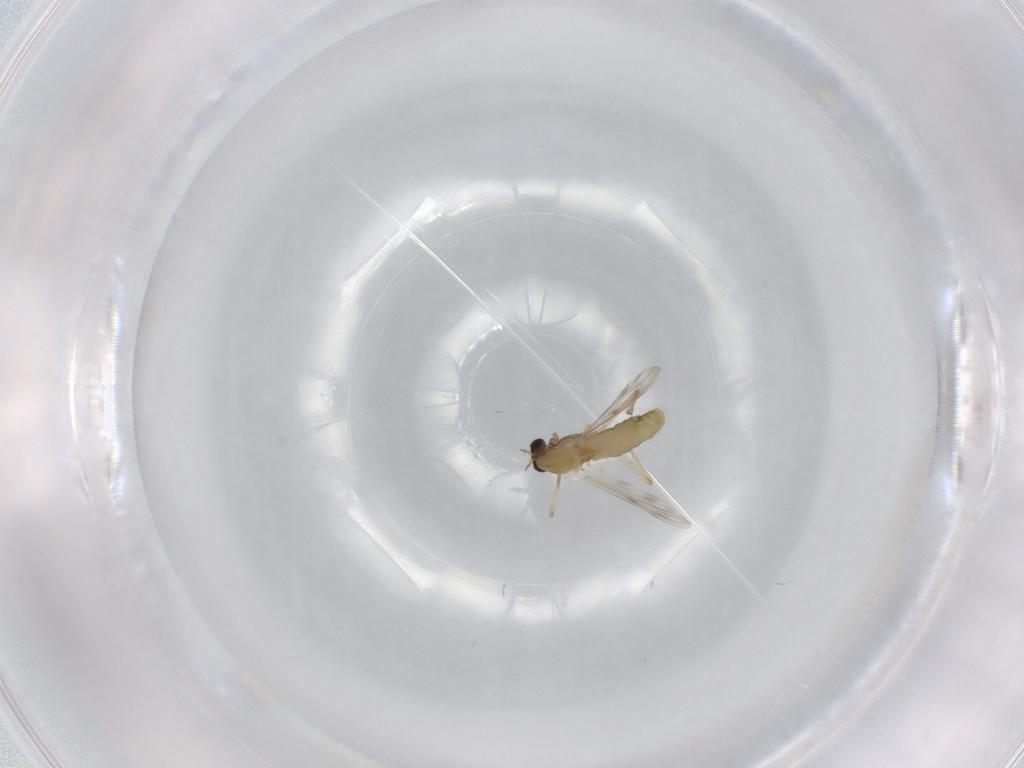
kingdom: Animalia
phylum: Arthropoda
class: Insecta
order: Diptera
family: Chironomidae
